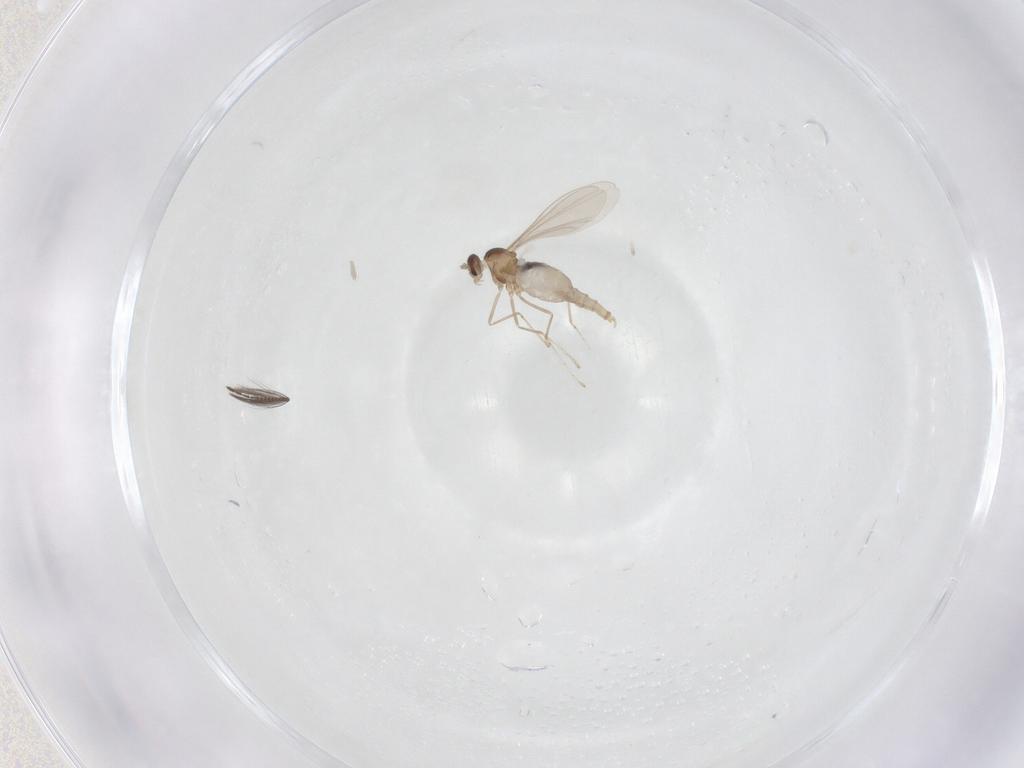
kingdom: Animalia
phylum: Arthropoda
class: Insecta
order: Diptera
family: Cecidomyiidae
